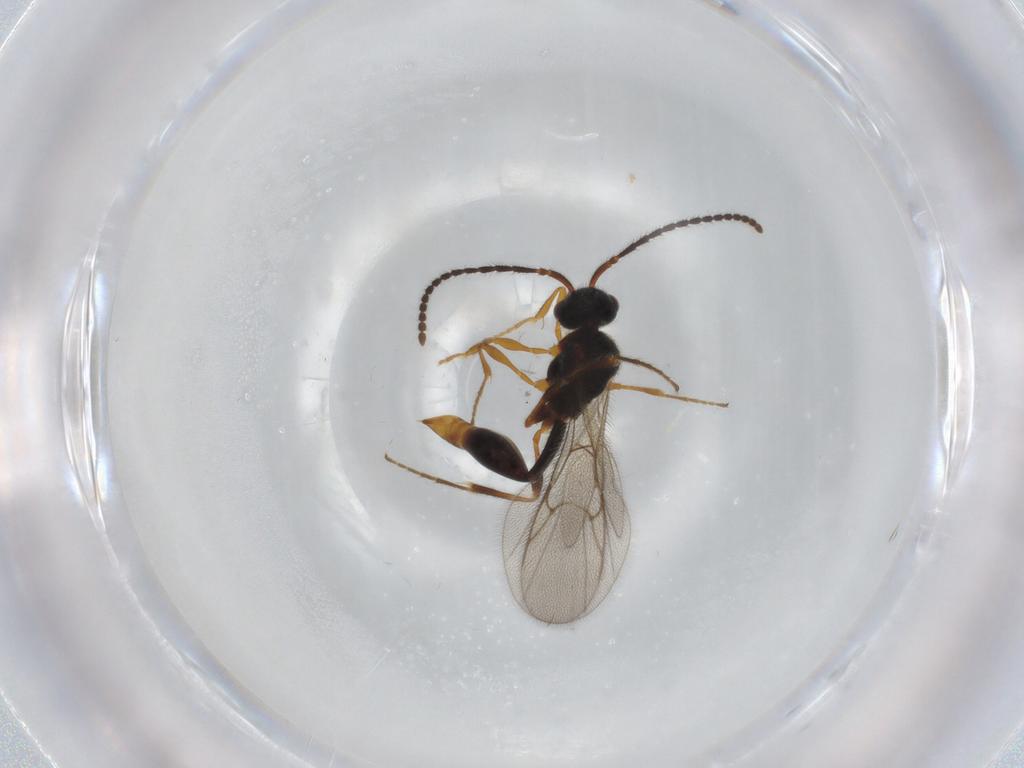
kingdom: Animalia
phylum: Arthropoda
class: Insecta
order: Hymenoptera
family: Diapriidae
